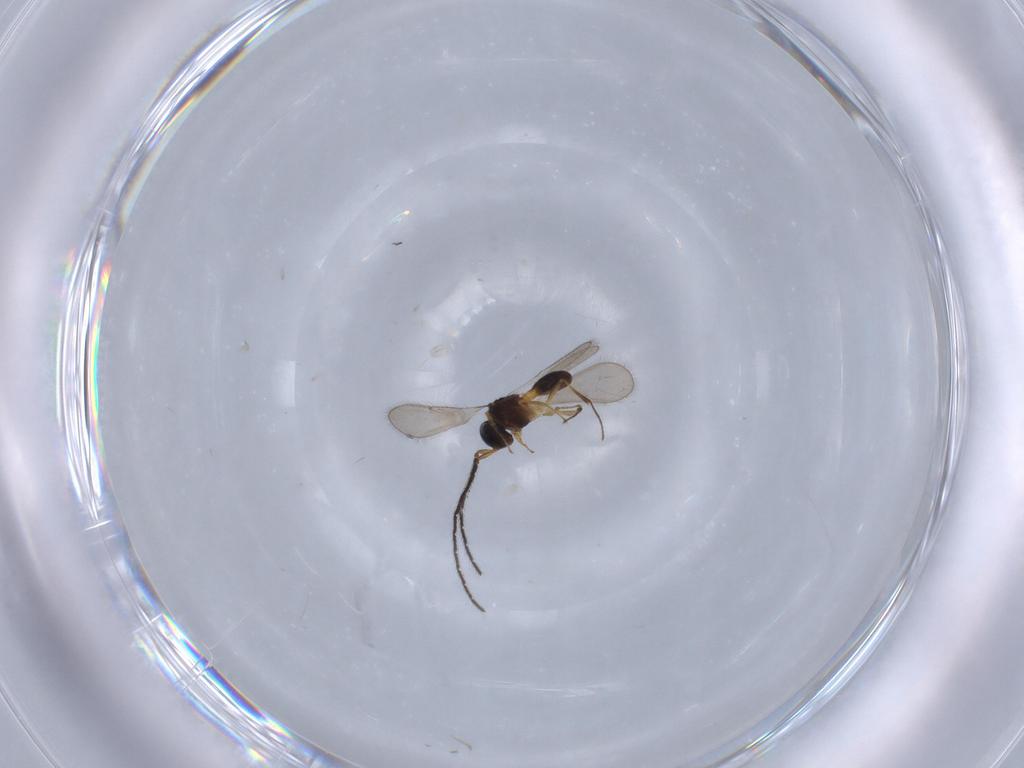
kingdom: Animalia
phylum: Arthropoda
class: Insecta
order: Hymenoptera
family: Scelionidae
